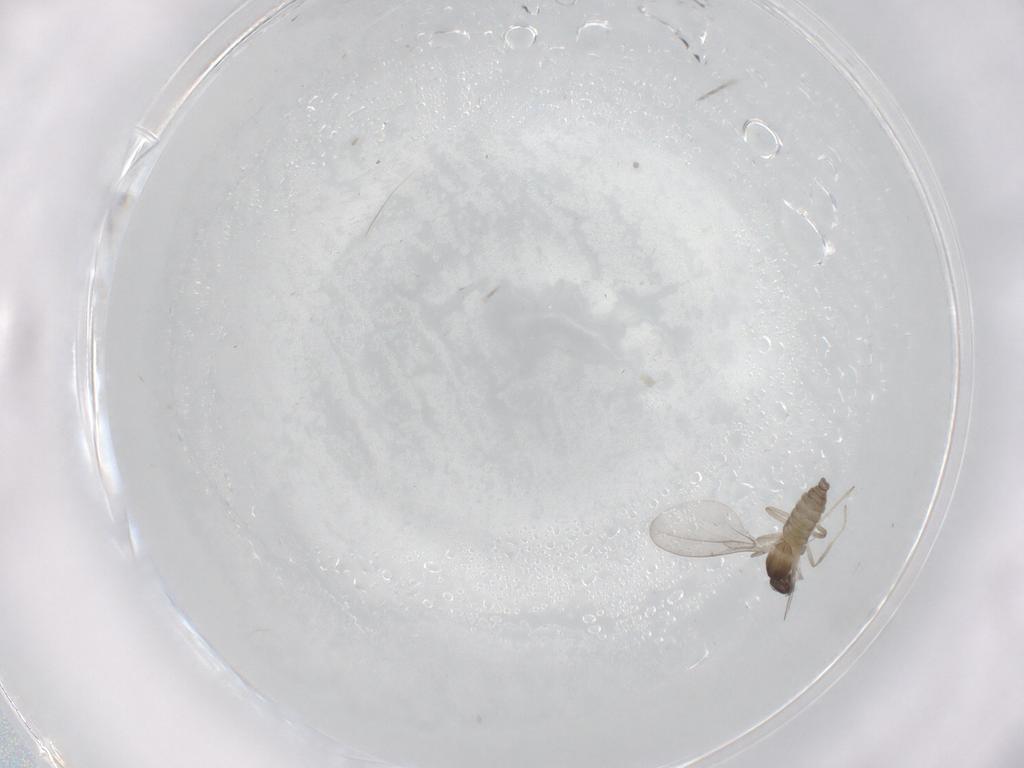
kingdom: Animalia
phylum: Arthropoda
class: Insecta
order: Diptera
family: Cecidomyiidae
